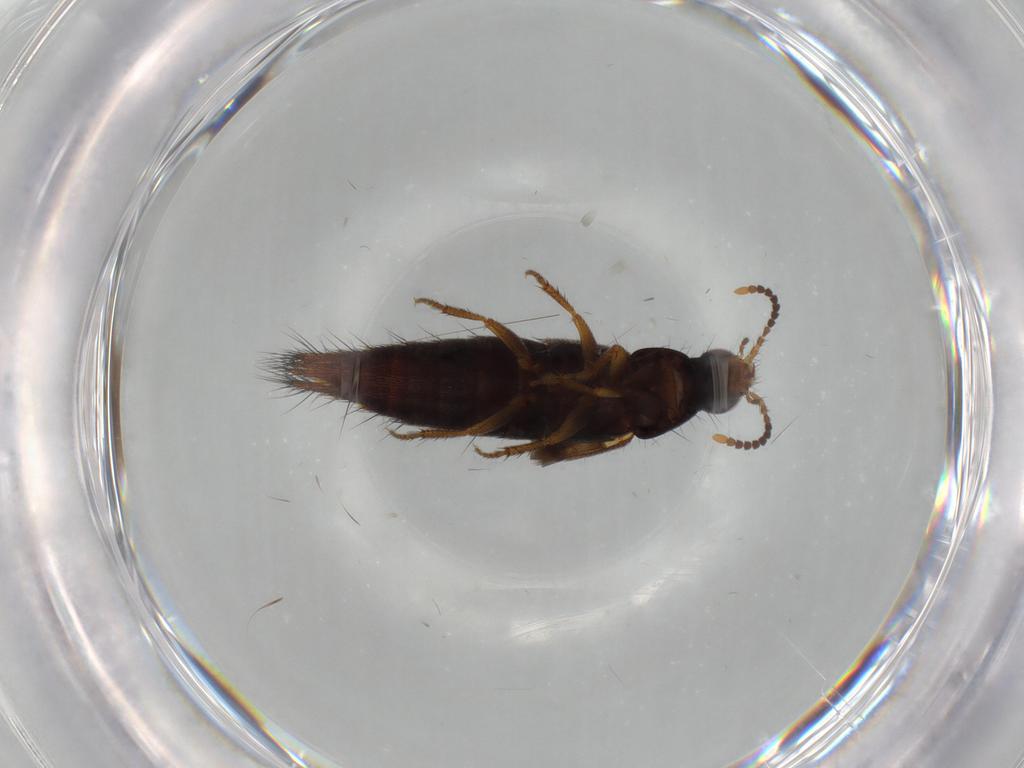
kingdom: Animalia
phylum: Arthropoda
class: Insecta
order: Coleoptera
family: Staphylinidae
